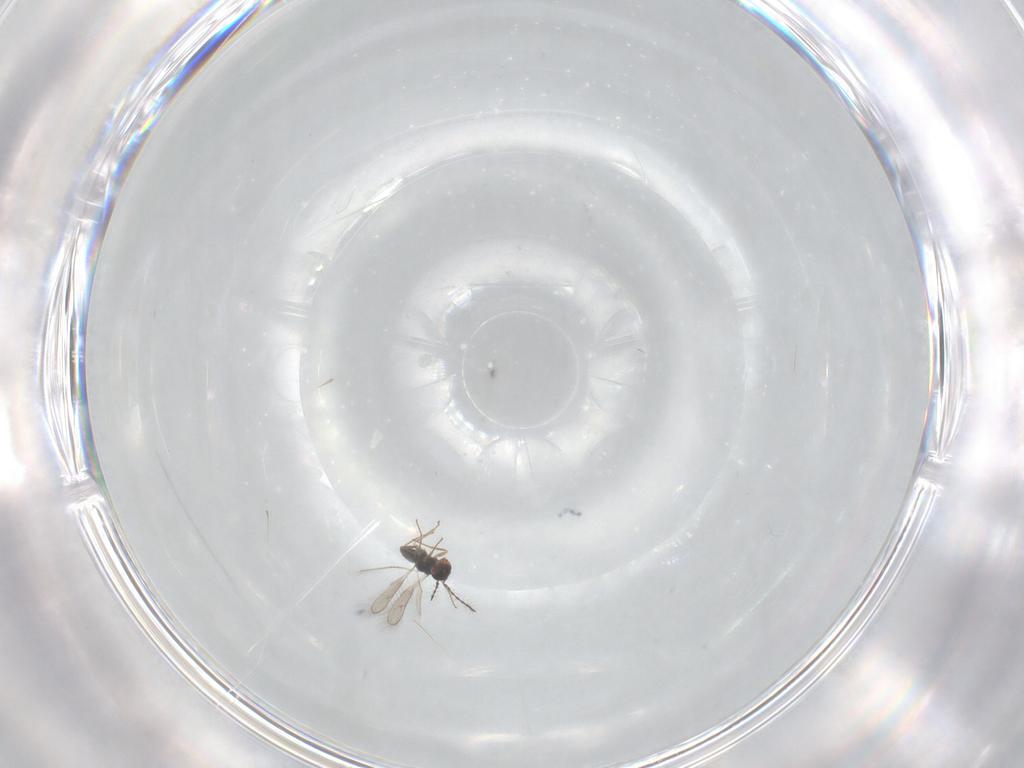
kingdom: Animalia
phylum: Arthropoda
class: Insecta
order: Hymenoptera
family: Pteromalidae
